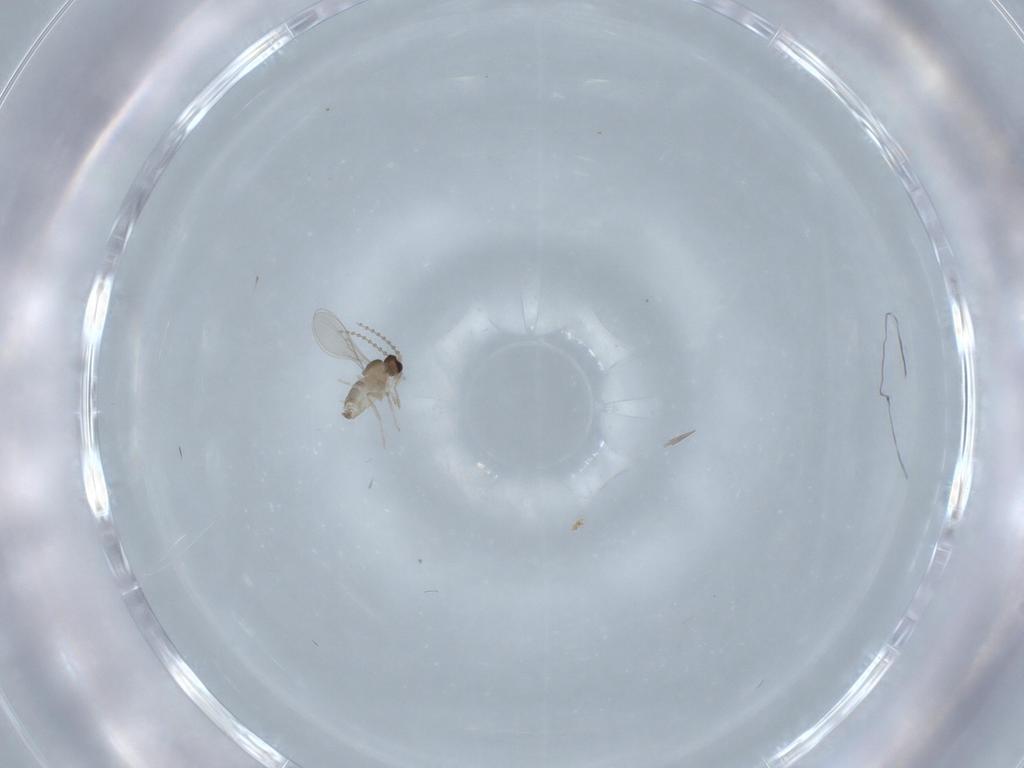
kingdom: Animalia
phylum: Arthropoda
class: Insecta
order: Diptera
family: Cecidomyiidae
